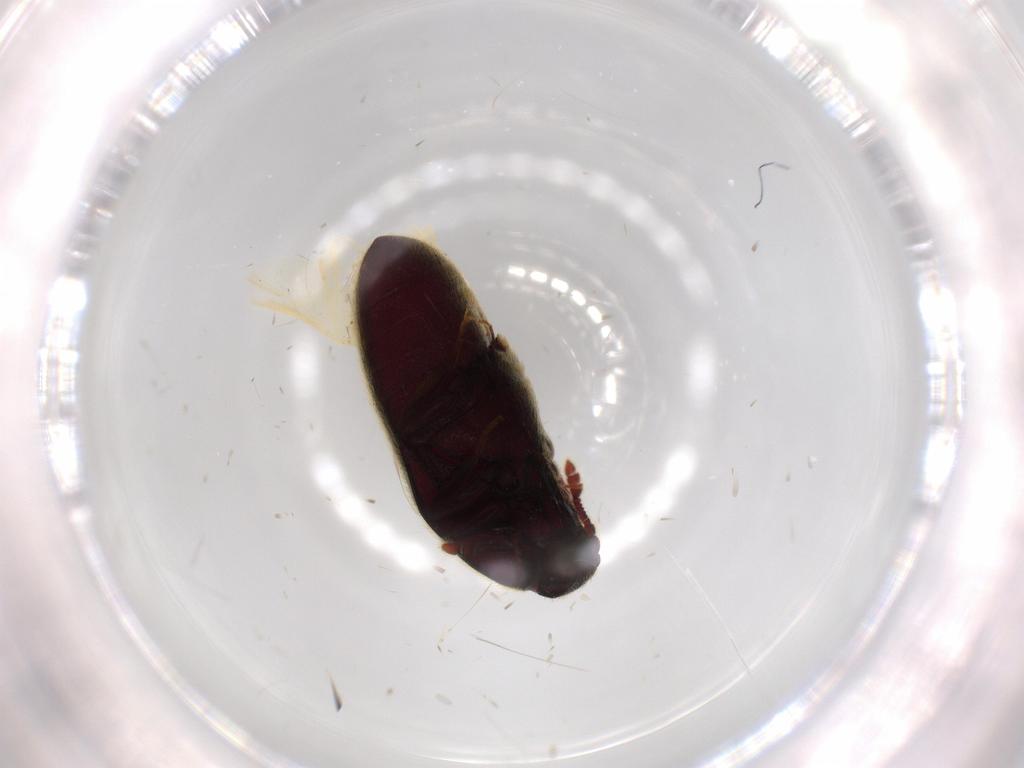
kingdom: Animalia
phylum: Arthropoda
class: Insecta
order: Coleoptera
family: Throscidae
